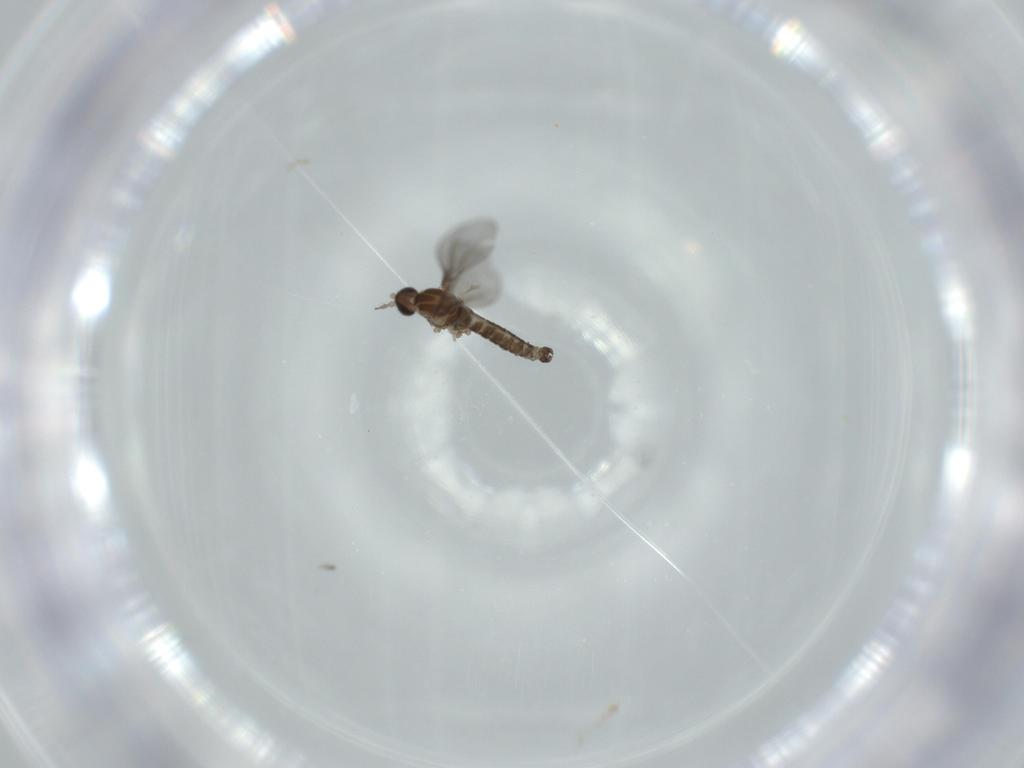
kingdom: Animalia
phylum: Arthropoda
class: Insecta
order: Diptera
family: Cecidomyiidae
